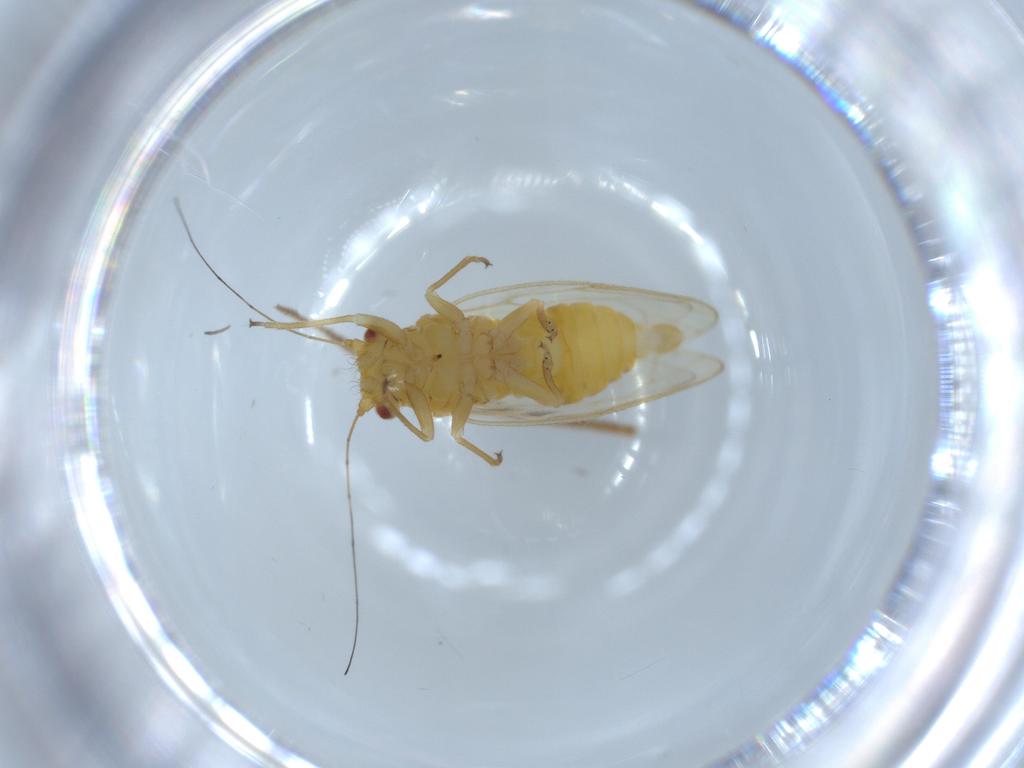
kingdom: Animalia
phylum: Arthropoda
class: Insecta
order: Hemiptera
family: Psyllidae
